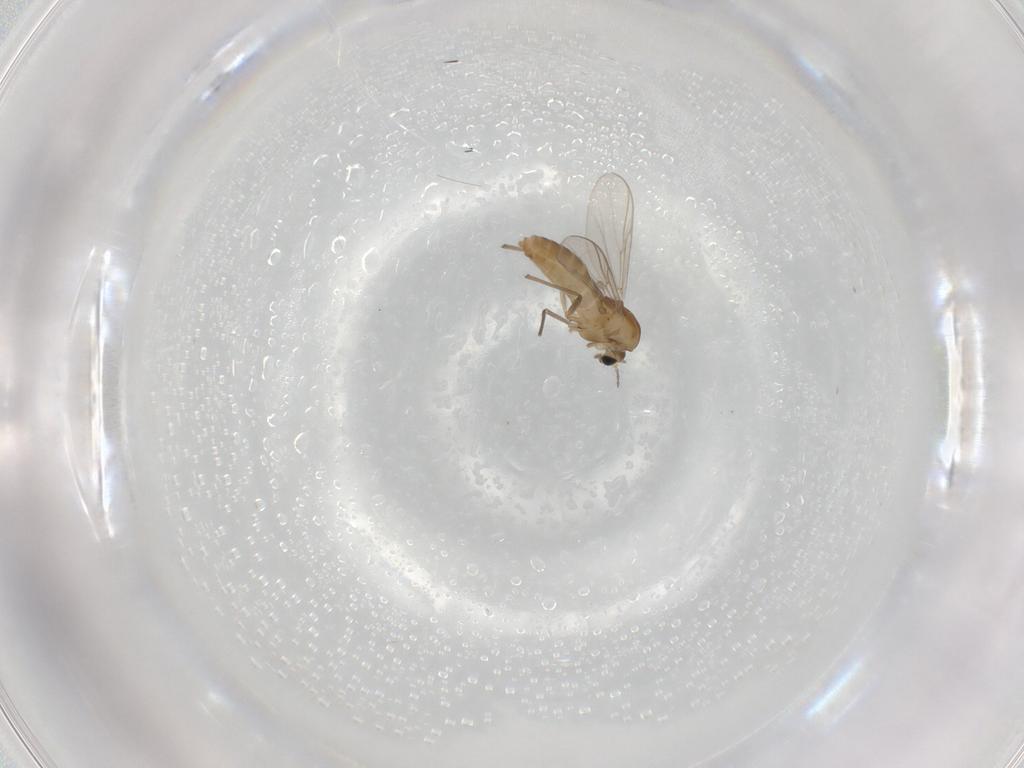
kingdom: Animalia
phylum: Arthropoda
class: Insecta
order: Diptera
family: Chironomidae
